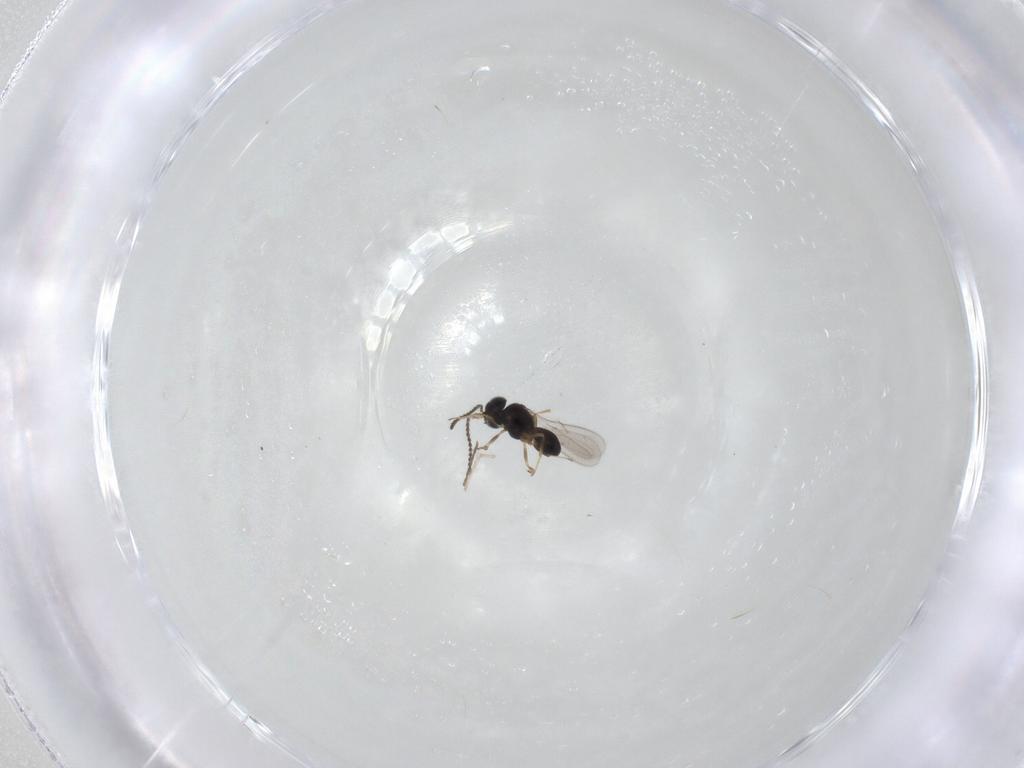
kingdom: Animalia
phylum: Arthropoda
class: Insecta
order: Hymenoptera
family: Scelionidae
